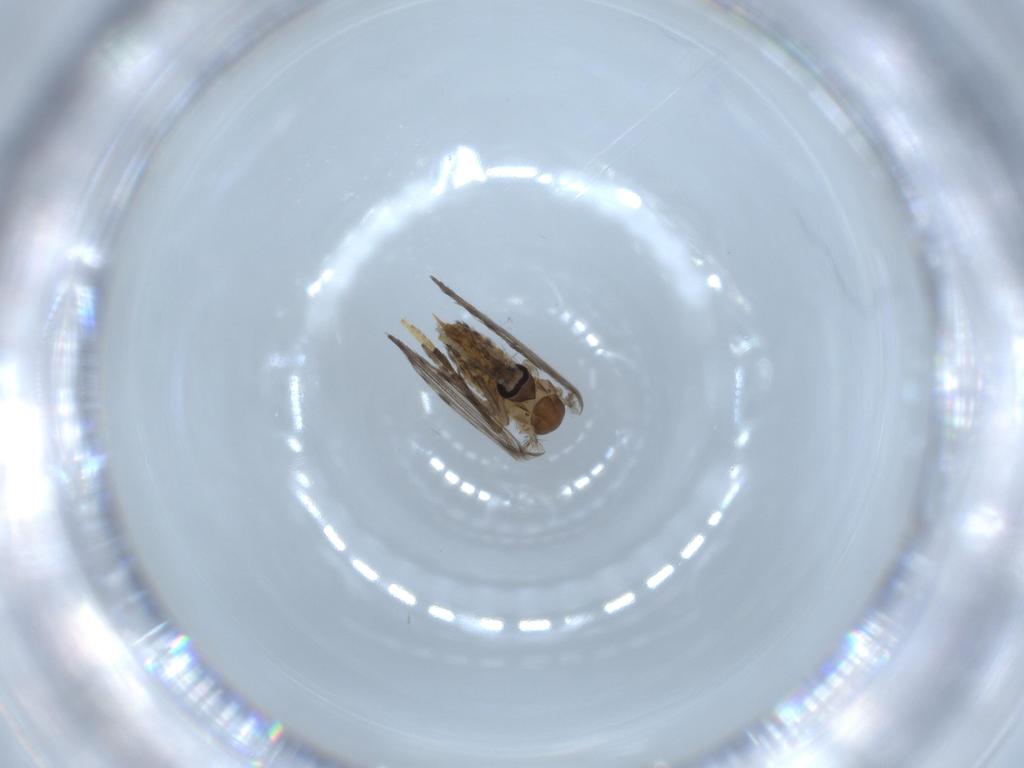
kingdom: Animalia
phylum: Arthropoda
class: Insecta
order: Diptera
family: Psychodidae
